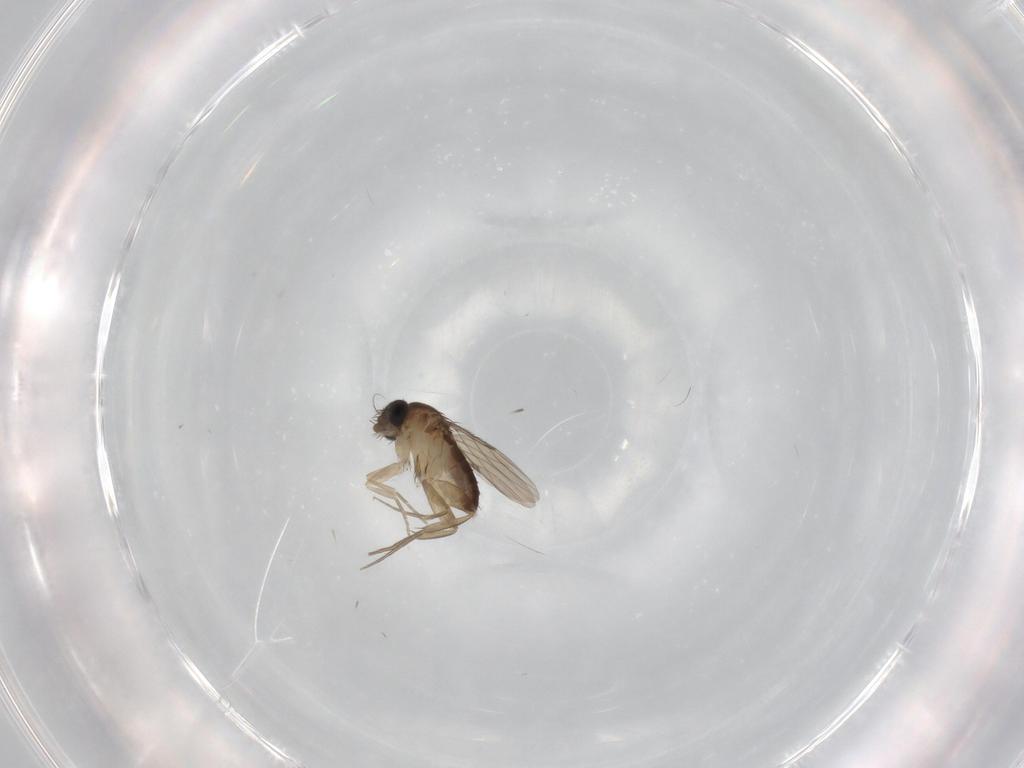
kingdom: Animalia
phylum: Arthropoda
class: Insecta
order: Diptera
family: Phoridae
